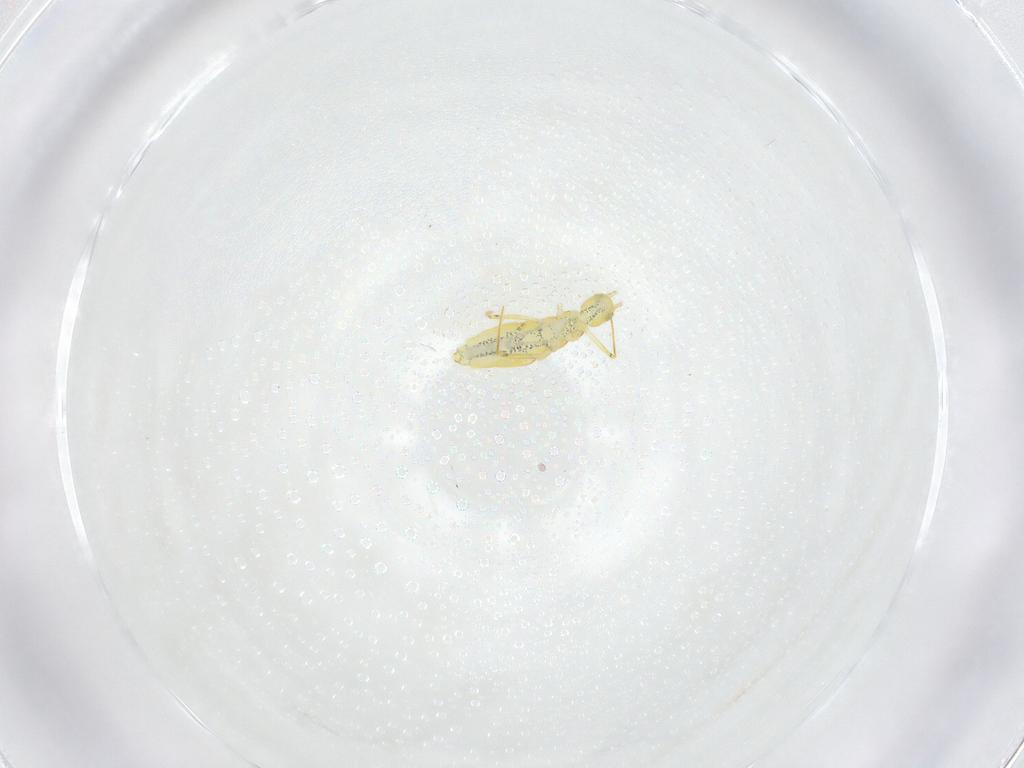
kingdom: Animalia
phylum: Arthropoda
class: Collembola
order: Entomobryomorpha
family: Paronellidae
